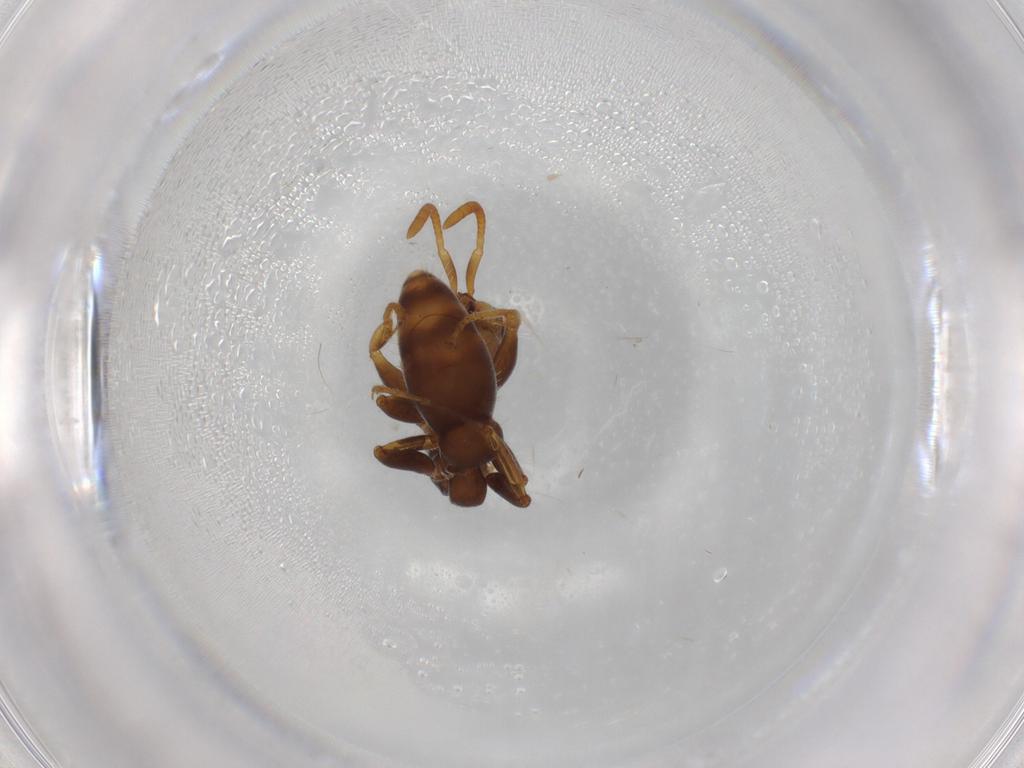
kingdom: Animalia
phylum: Arthropoda
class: Insecta
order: Hymenoptera
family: Formicidae
